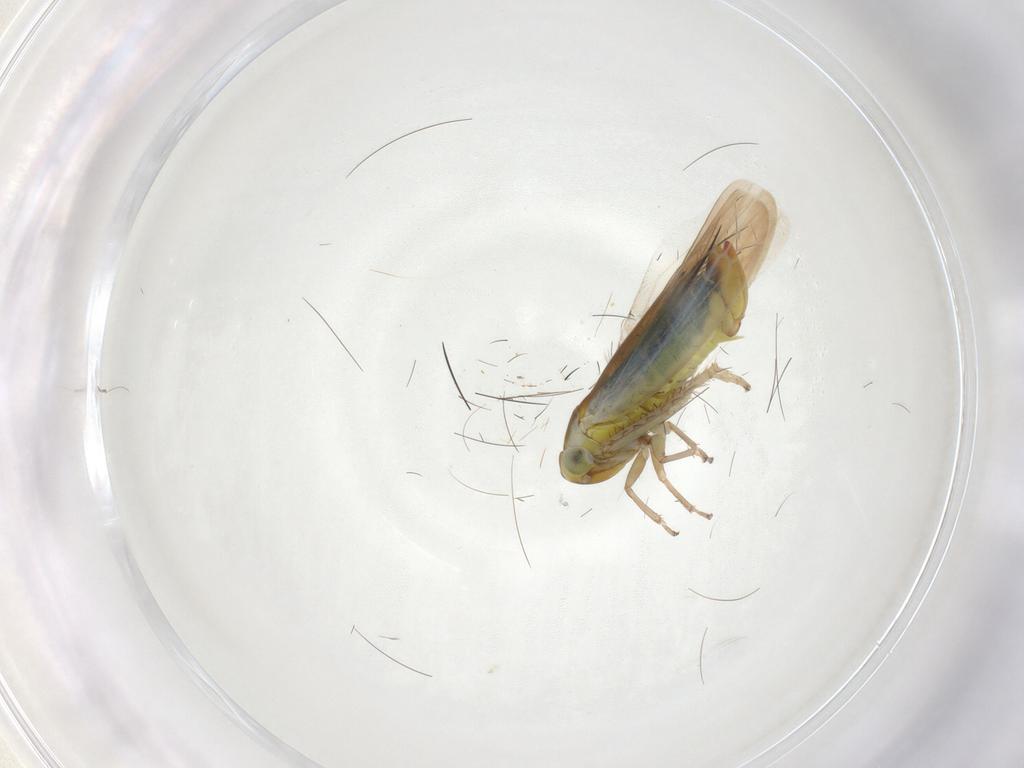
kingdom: Animalia
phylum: Arthropoda
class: Insecta
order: Hemiptera
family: Cicadellidae
